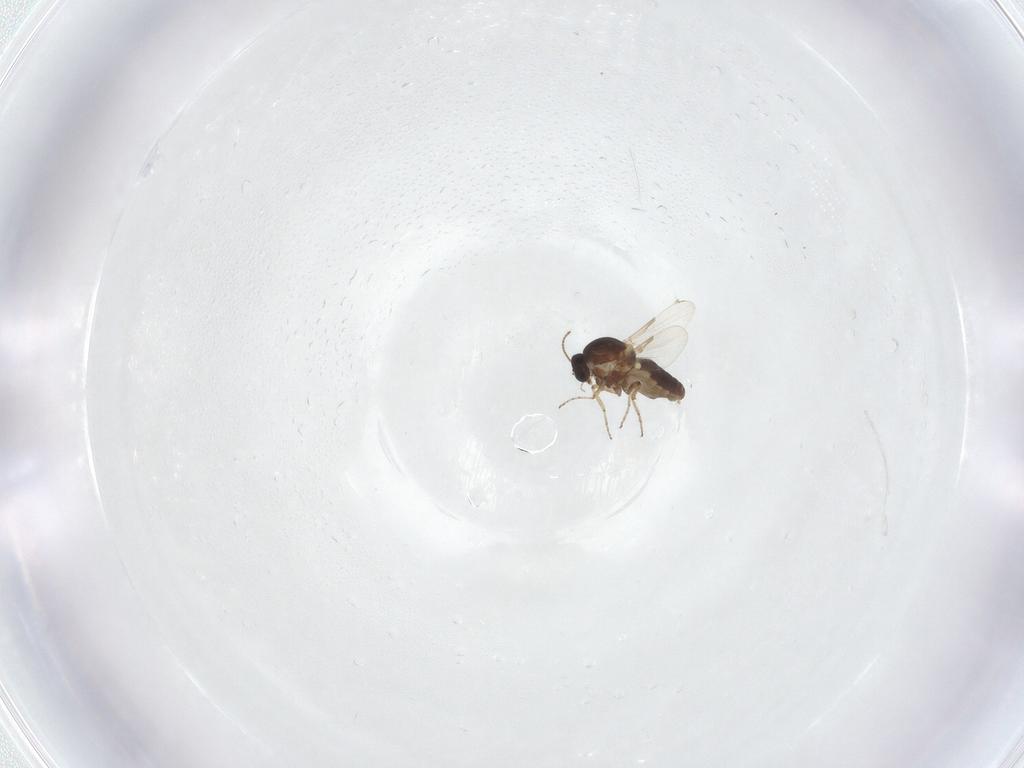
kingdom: Animalia
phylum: Arthropoda
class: Insecta
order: Diptera
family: Ceratopogonidae
